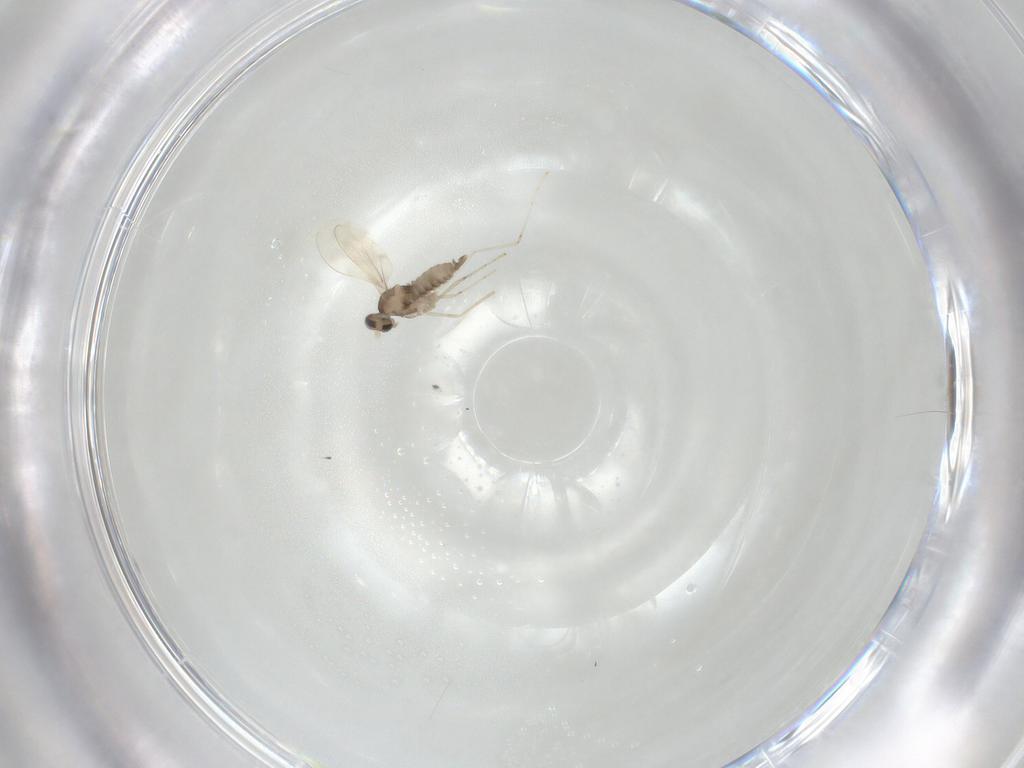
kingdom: Animalia
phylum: Arthropoda
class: Insecta
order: Diptera
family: Cecidomyiidae
